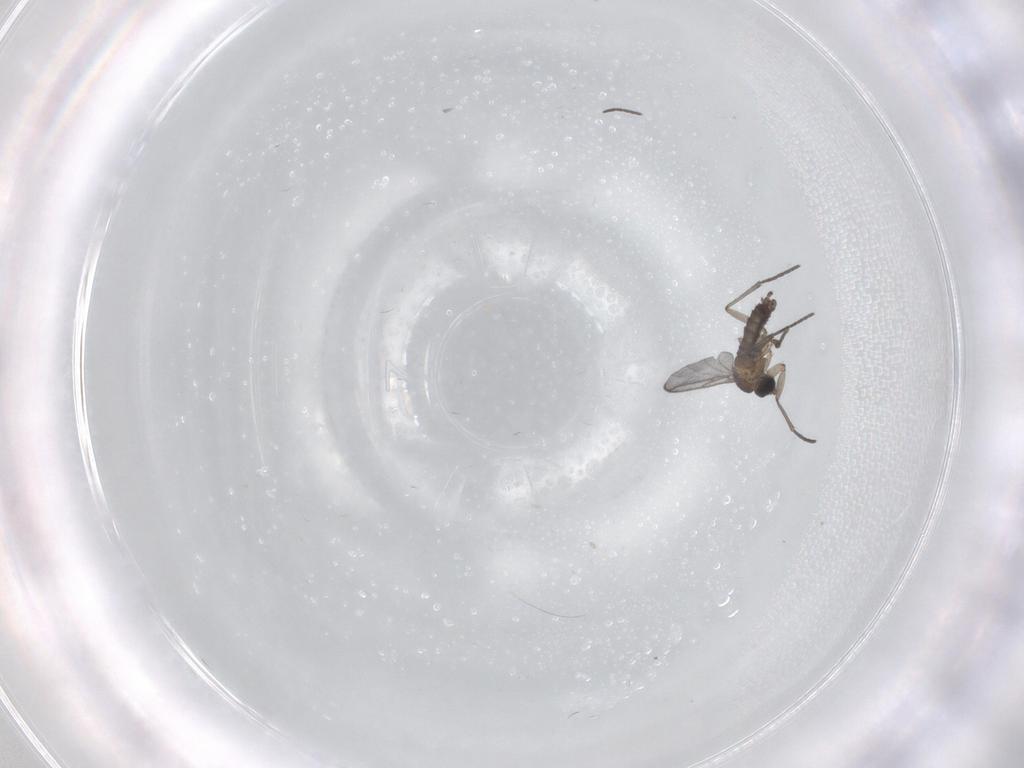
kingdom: Animalia
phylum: Arthropoda
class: Insecta
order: Diptera
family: Sciaridae
